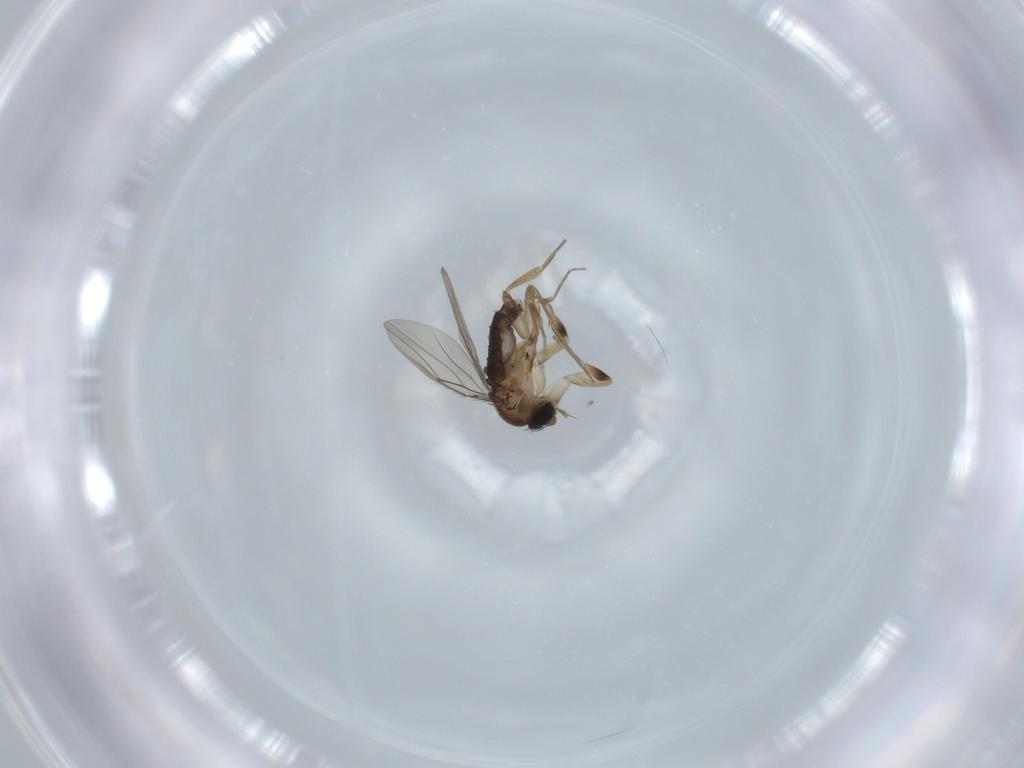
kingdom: Animalia
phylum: Arthropoda
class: Insecta
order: Diptera
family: Phoridae
